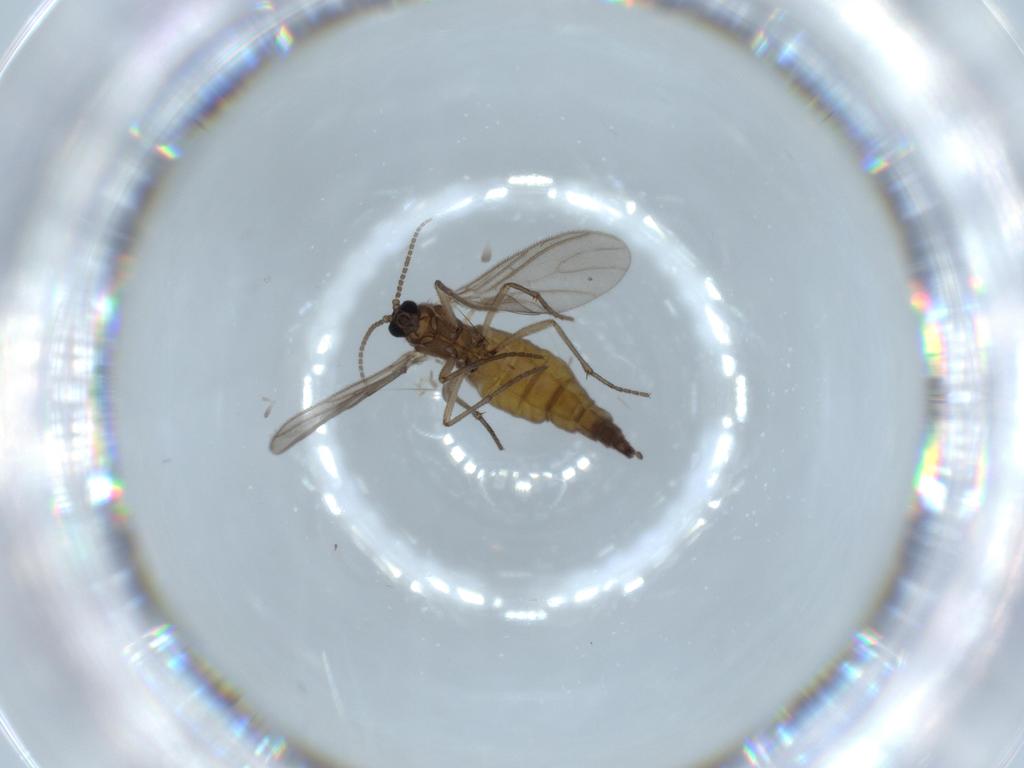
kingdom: Animalia
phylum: Arthropoda
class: Insecta
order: Diptera
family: Sciaridae
